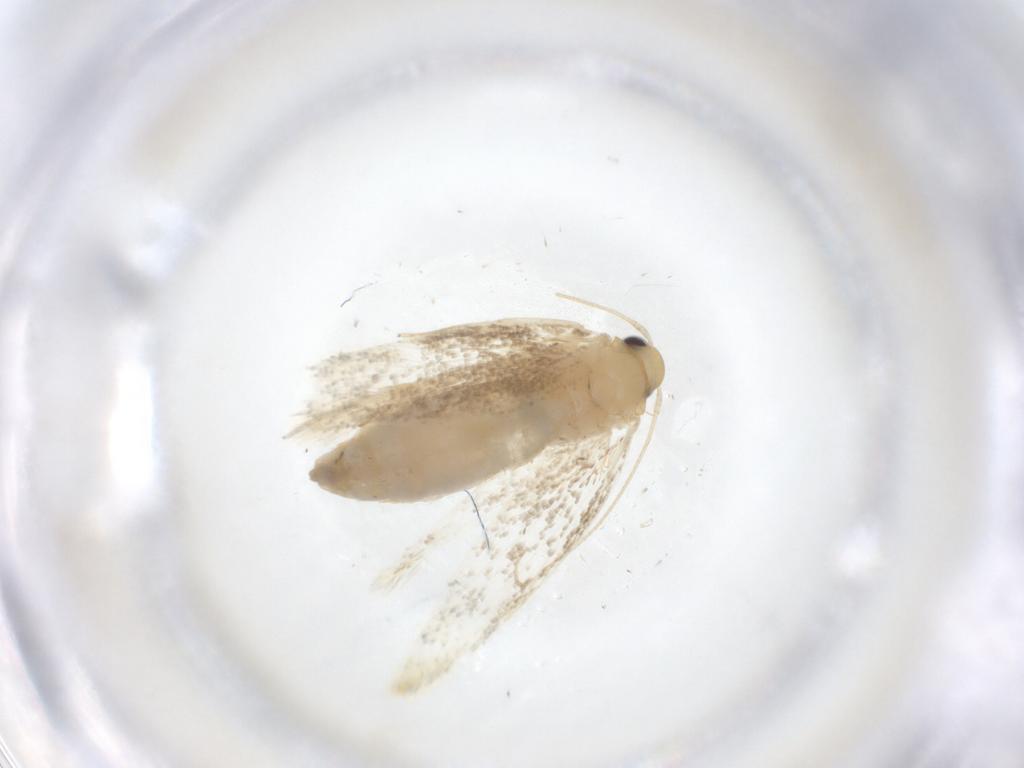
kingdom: Animalia
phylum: Arthropoda
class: Insecta
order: Lepidoptera
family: Erebidae
